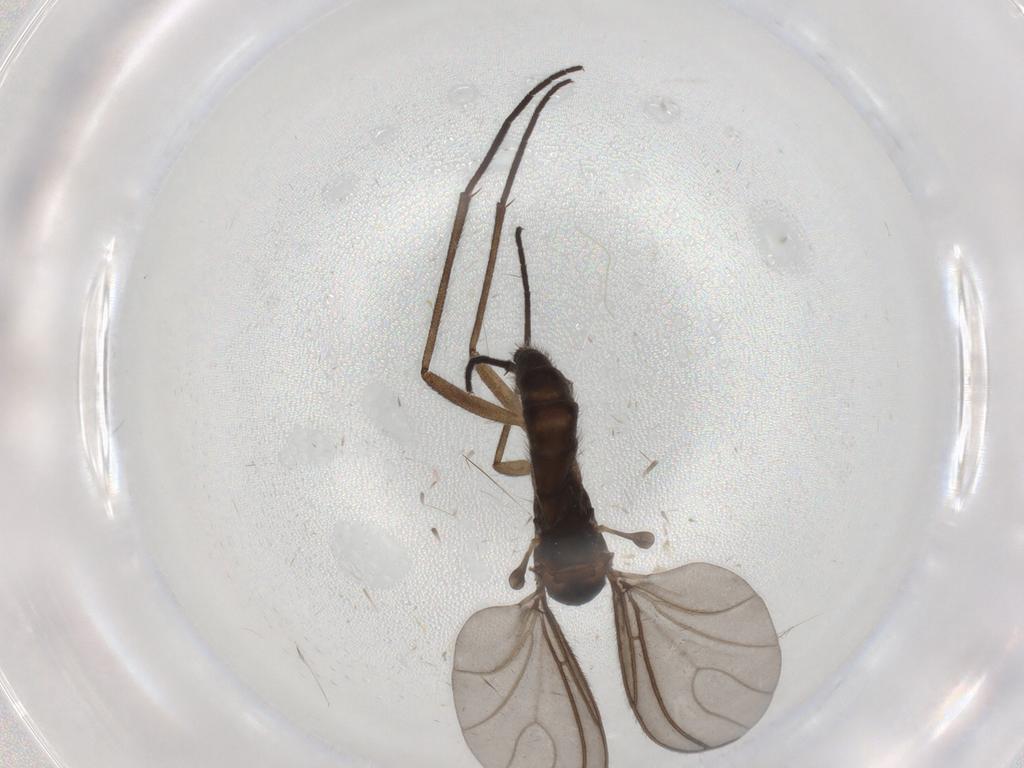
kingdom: Animalia
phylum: Arthropoda
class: Insecta
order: Diptera
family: Psychodidae
